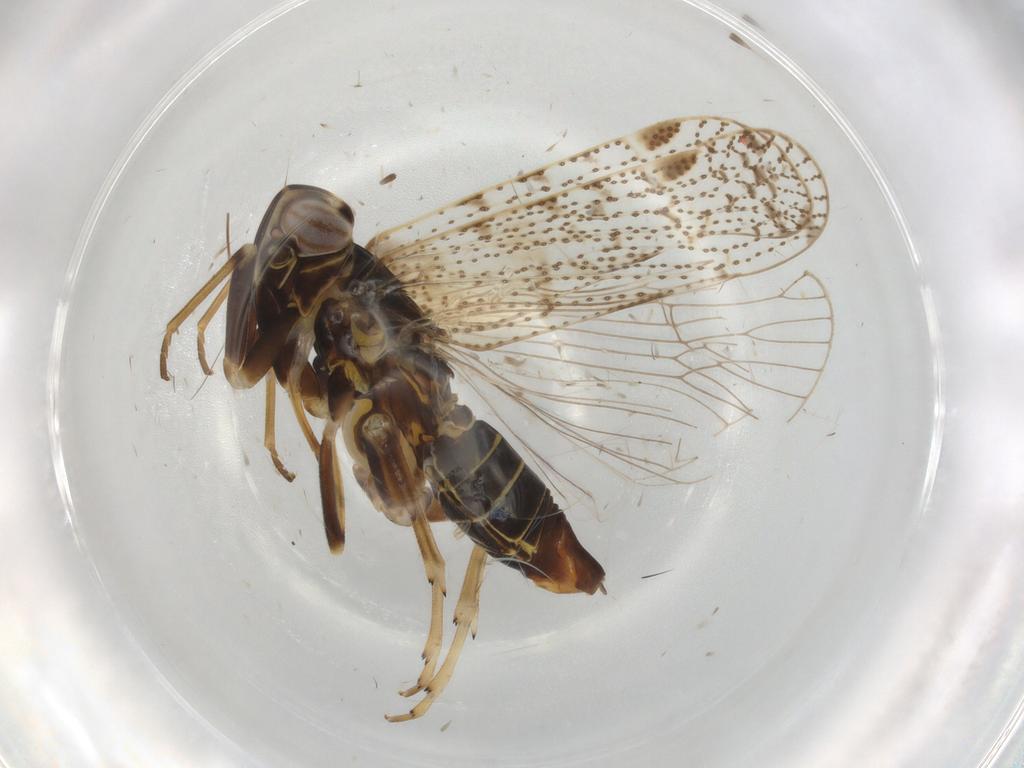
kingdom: Animalia
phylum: Arthropoda
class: Insecta
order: Hemiptera
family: Cixiidae
